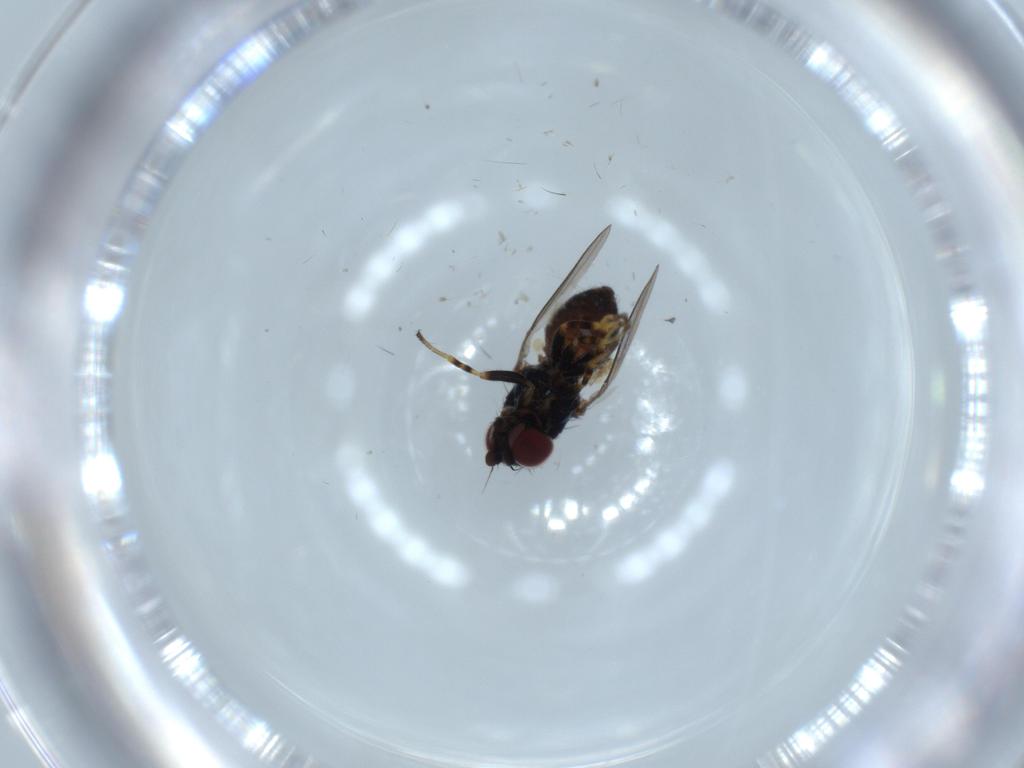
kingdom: Animalia
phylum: Arthropoda
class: Insecta
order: Diptera
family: Chloropidae
